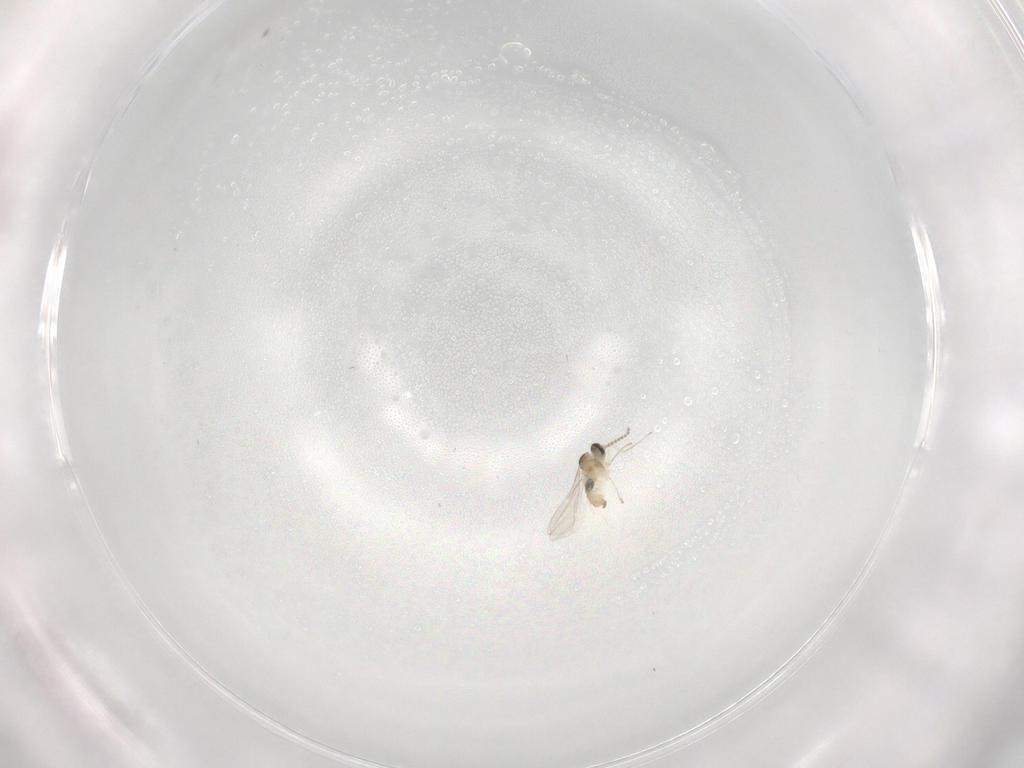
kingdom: Animalia
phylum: Arthropoda
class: Insecta
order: Diptera
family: Cecidomyiidae
